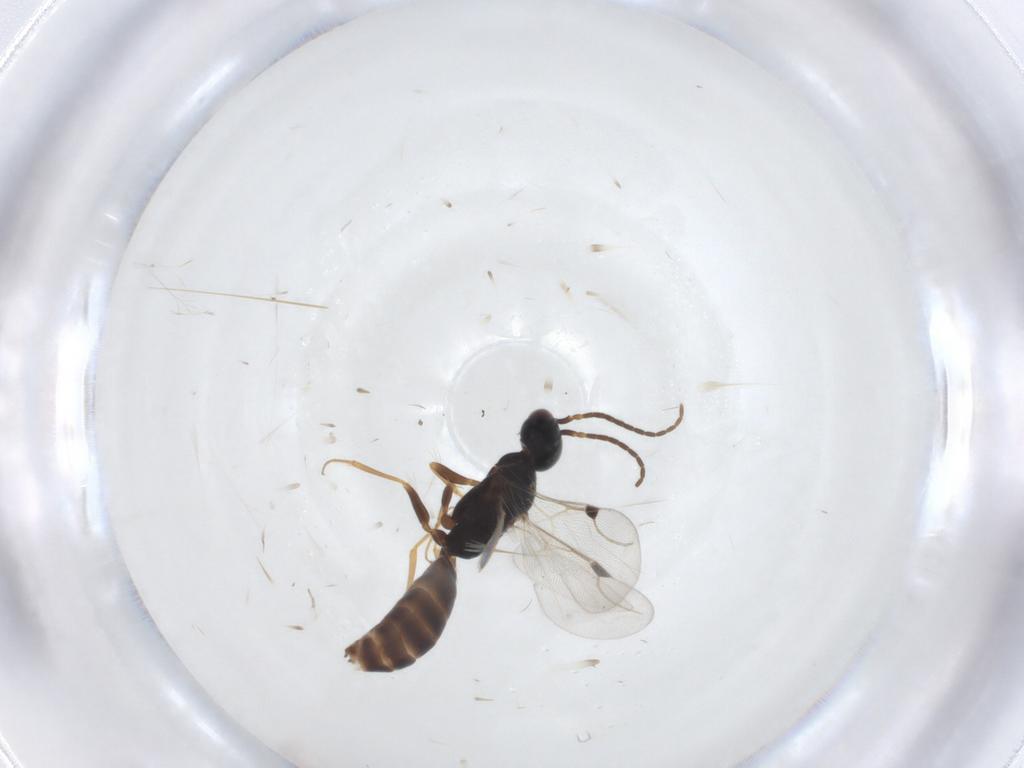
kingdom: Animalia
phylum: Arthropoda
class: Insecta
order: Hymenoptera
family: Bethylidae
